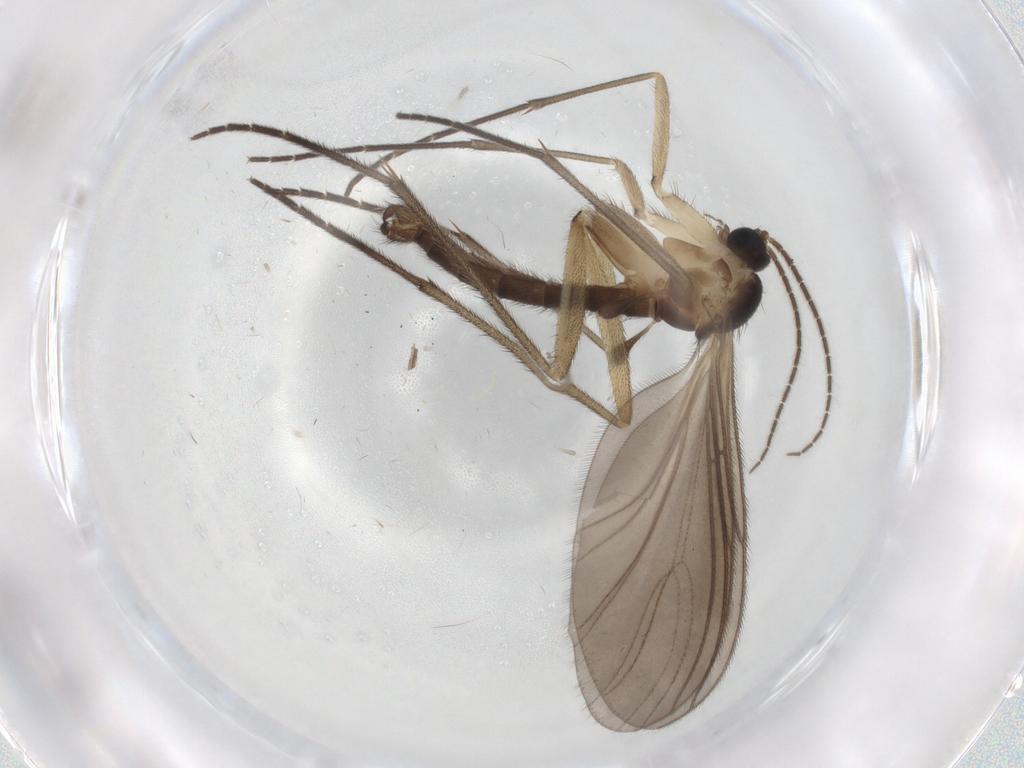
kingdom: Animalia
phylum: Arthropoda
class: Insecta
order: Diptera
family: Sciaridae
